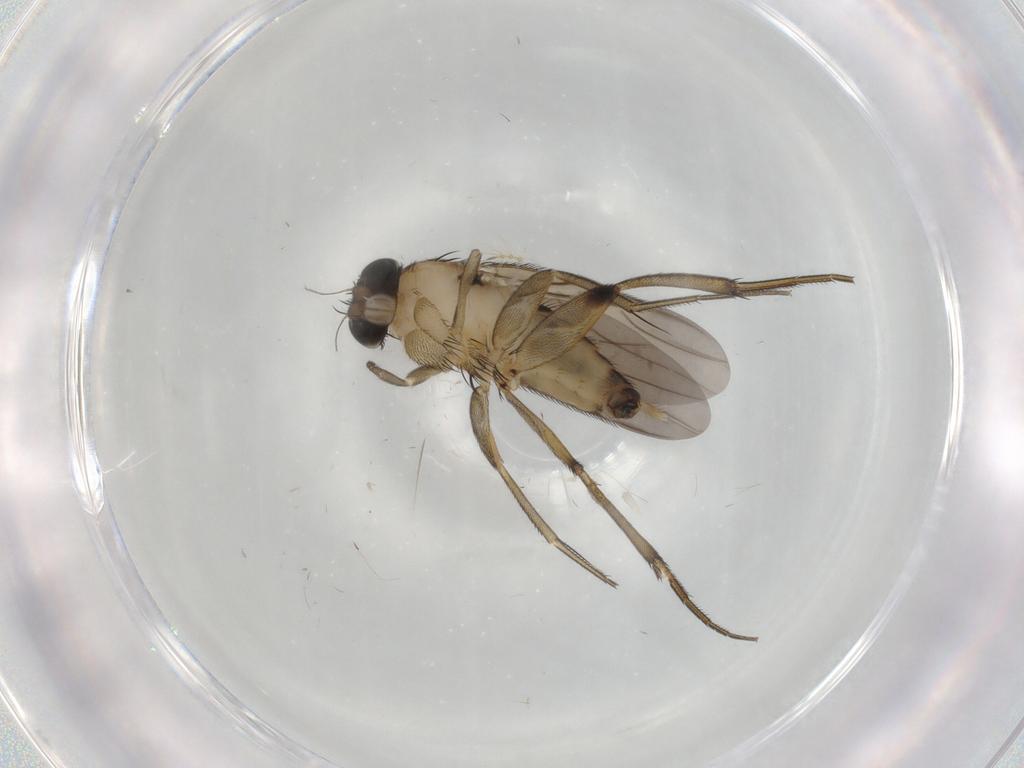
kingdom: Animalia
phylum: Arthropoda
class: Insecta
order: Diptera
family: Phoridae
